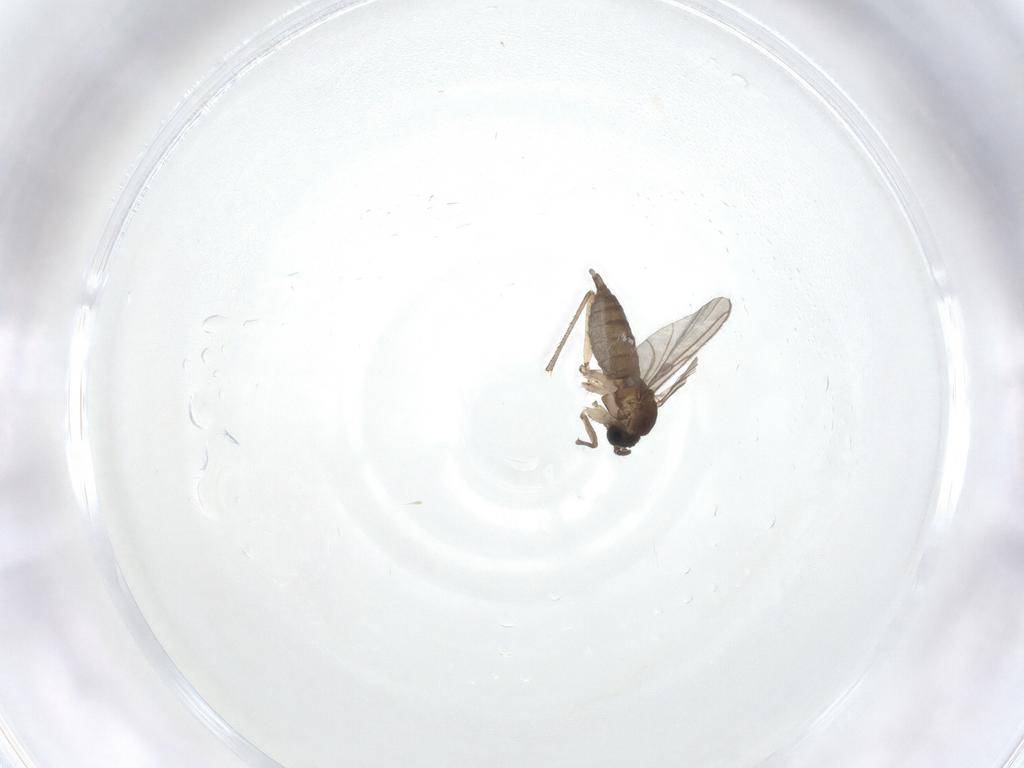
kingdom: Animalia
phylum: Arthropoda
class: Insecta
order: Diptera
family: Sciaridae
